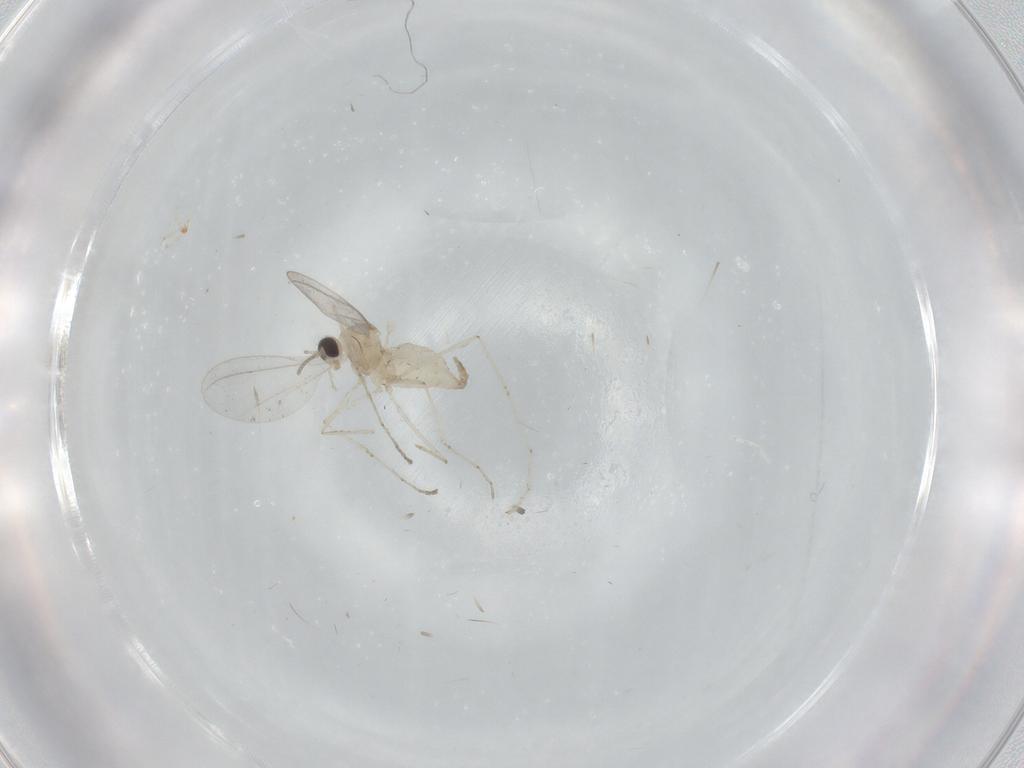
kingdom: Animalia
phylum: Arthropoda
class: Insecta
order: Diptera
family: Cecidomyiidae
